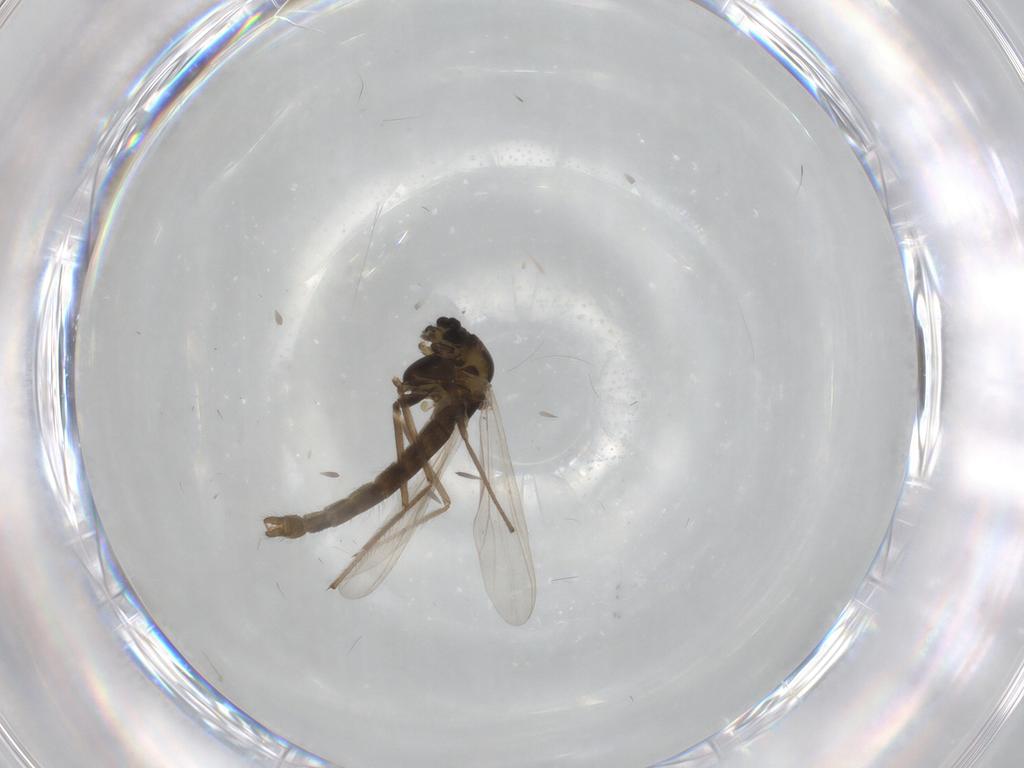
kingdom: Animalia
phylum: Arthropoda
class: Insecta
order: Diptera
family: Chironomidae
